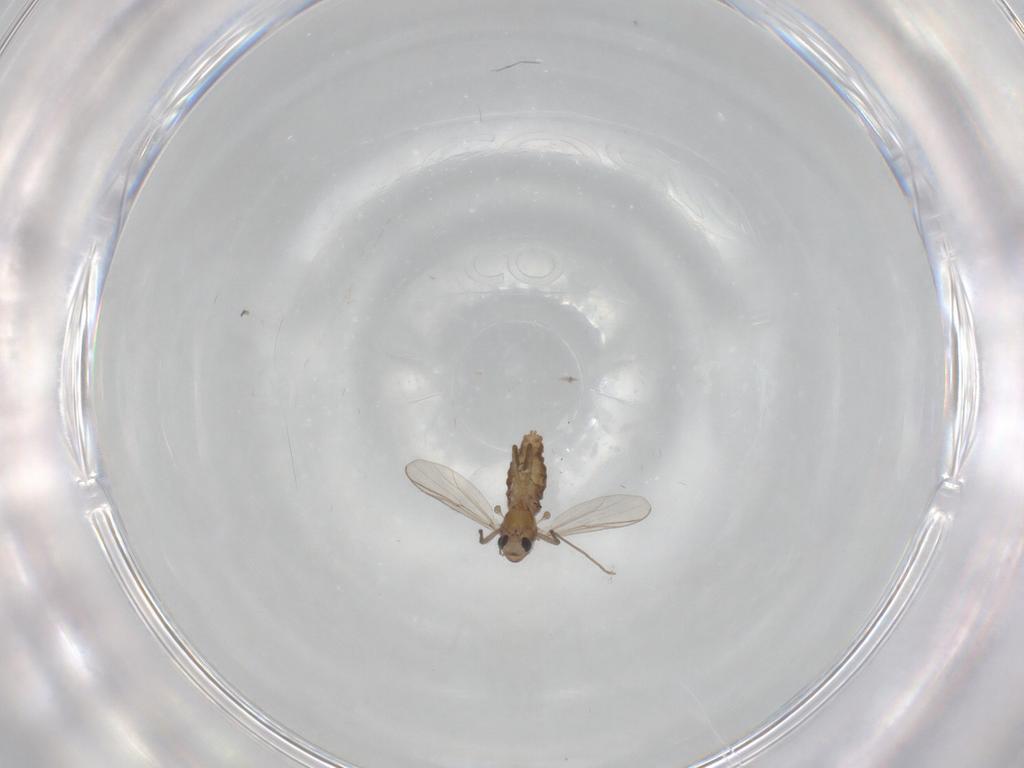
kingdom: Animalia
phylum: Arthropoda
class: Insecta
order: Diptera
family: Chironomidae
